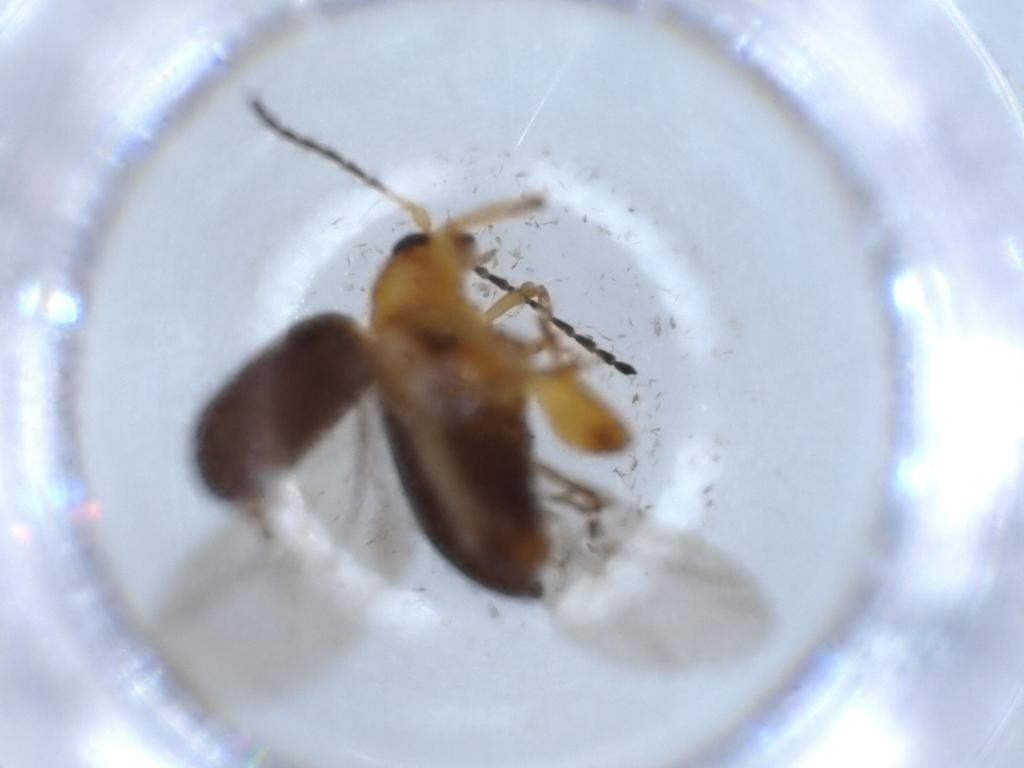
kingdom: Animalia
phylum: Arthropoda
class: Insecta
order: Coleoptera
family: Chrysomelidae
